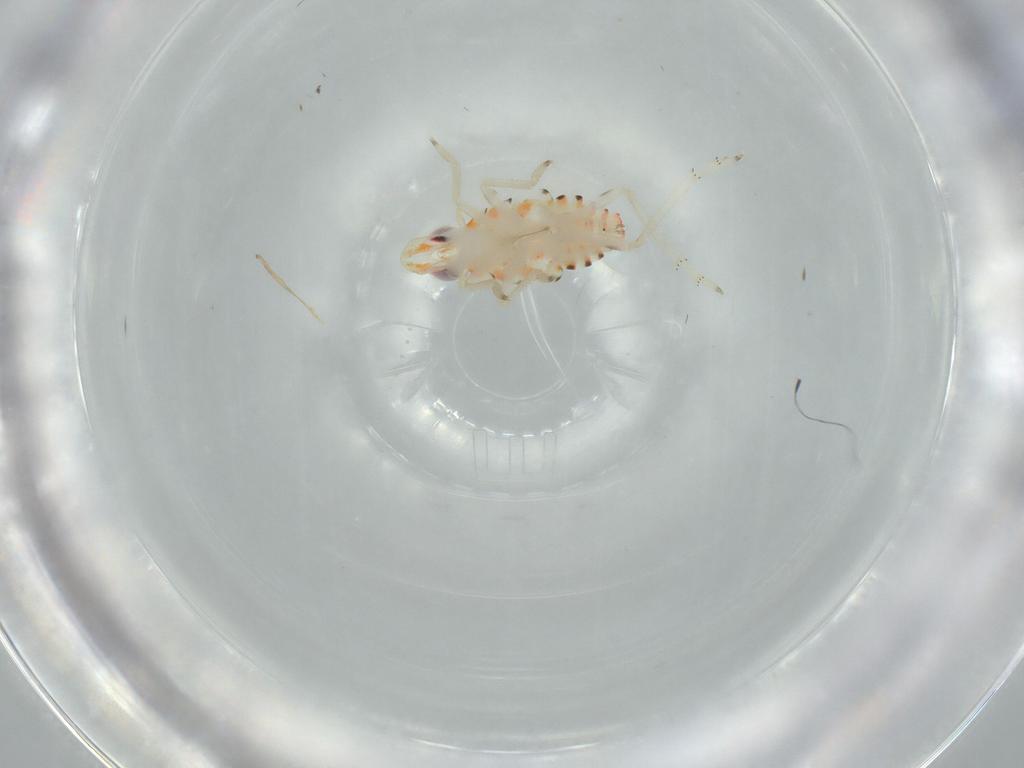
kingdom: Animalia
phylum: Arthropoda
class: Insecta
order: Hemiptera
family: Tropiduchidae
